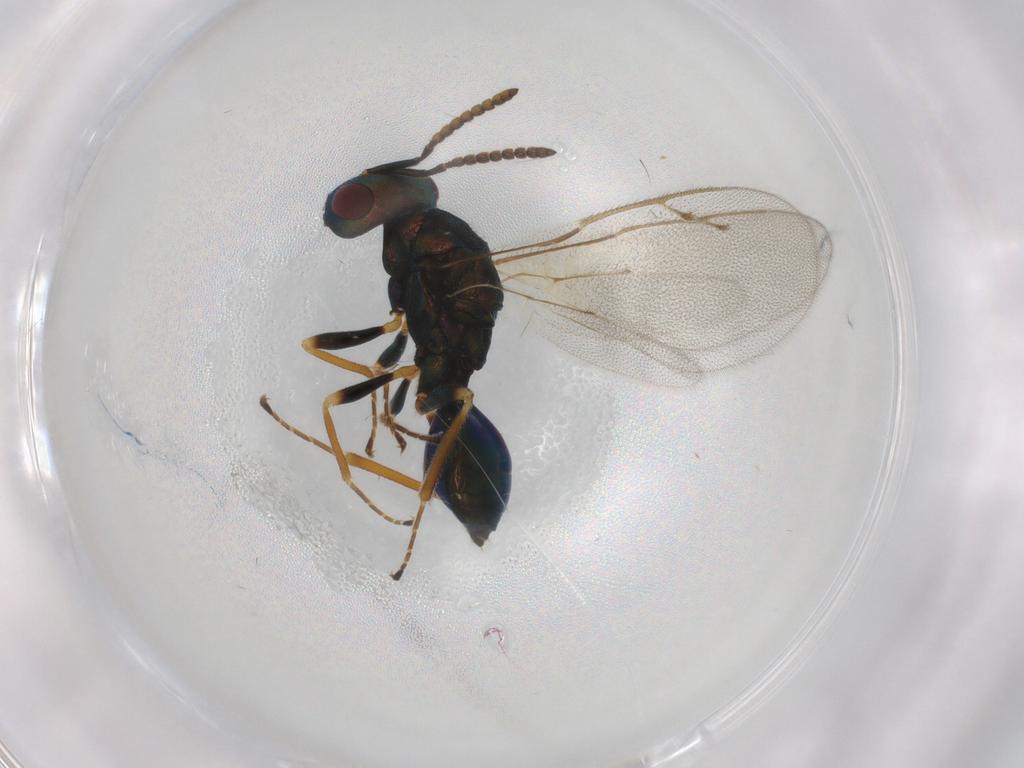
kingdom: Animalia
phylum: Arthropoda
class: Insecta
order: Hymenoptera
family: Pteromalidae
